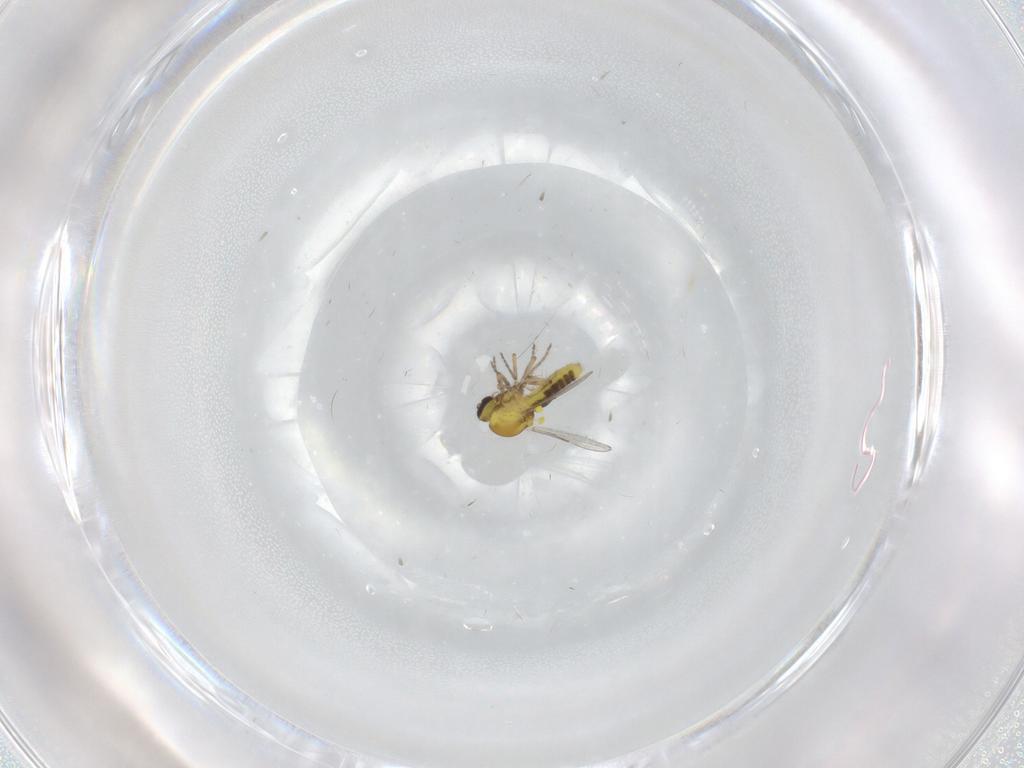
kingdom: Animalia
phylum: Arthropoda
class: Insecta
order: Diptera
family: Ceratopogonidae
